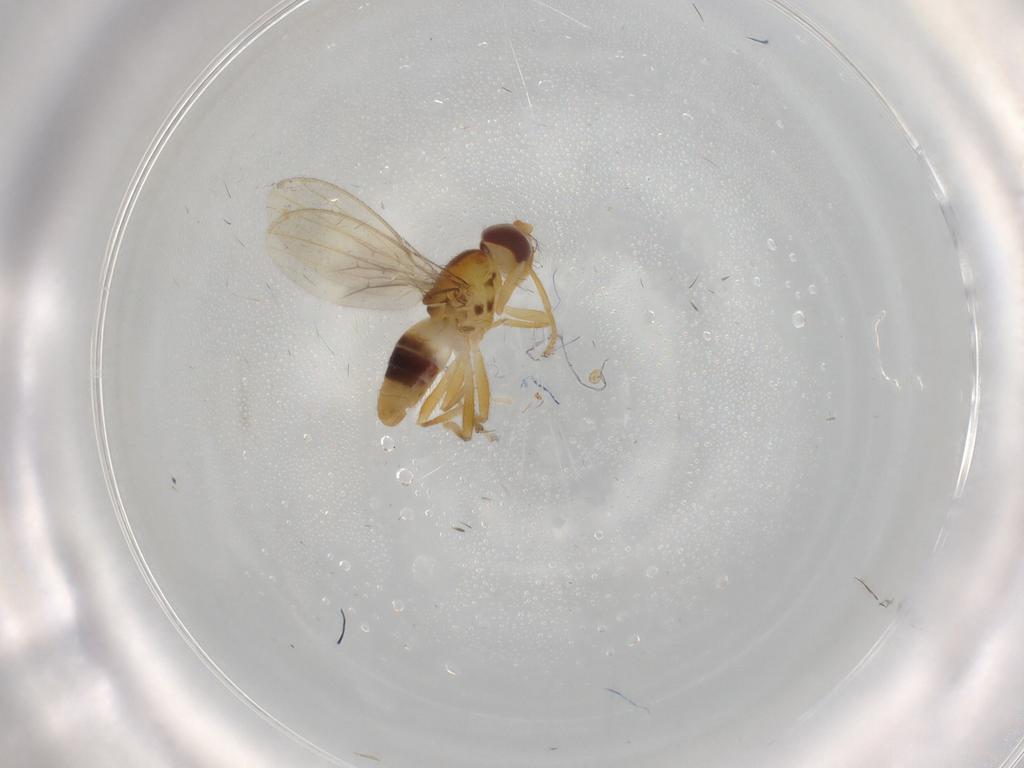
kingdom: Animalia
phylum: Arthropoda
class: Insecta
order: Diptera
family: Periscelididae
